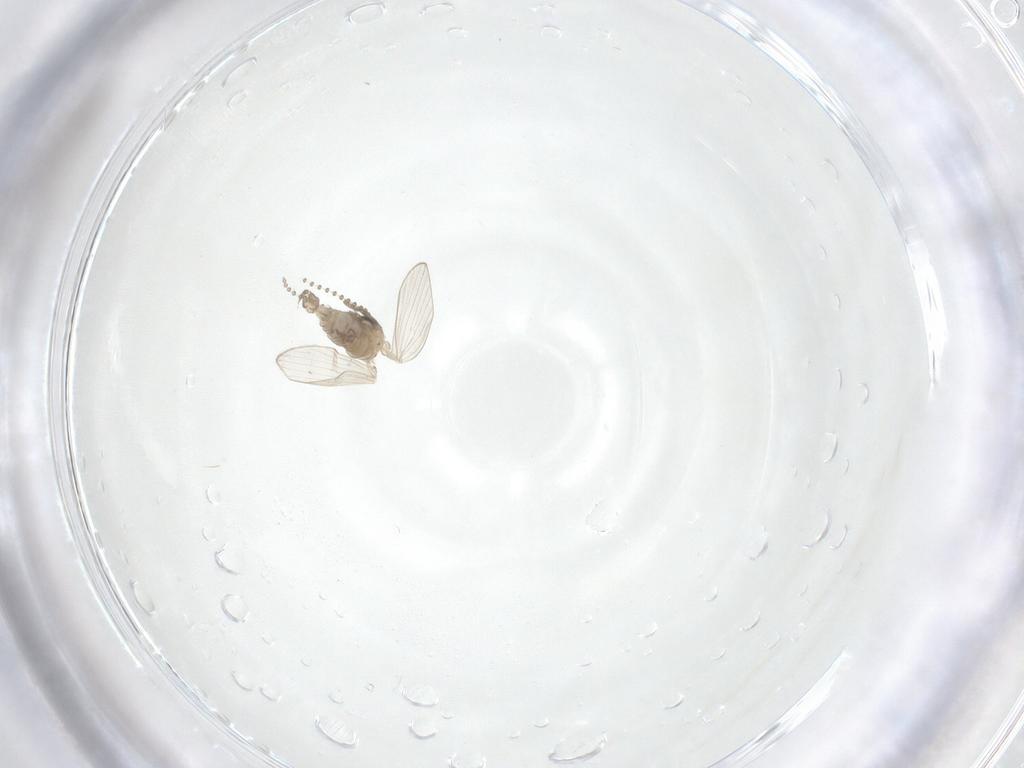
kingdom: Animalia
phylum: Arthropoda
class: Insecta
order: Diptera
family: Psychodidae
